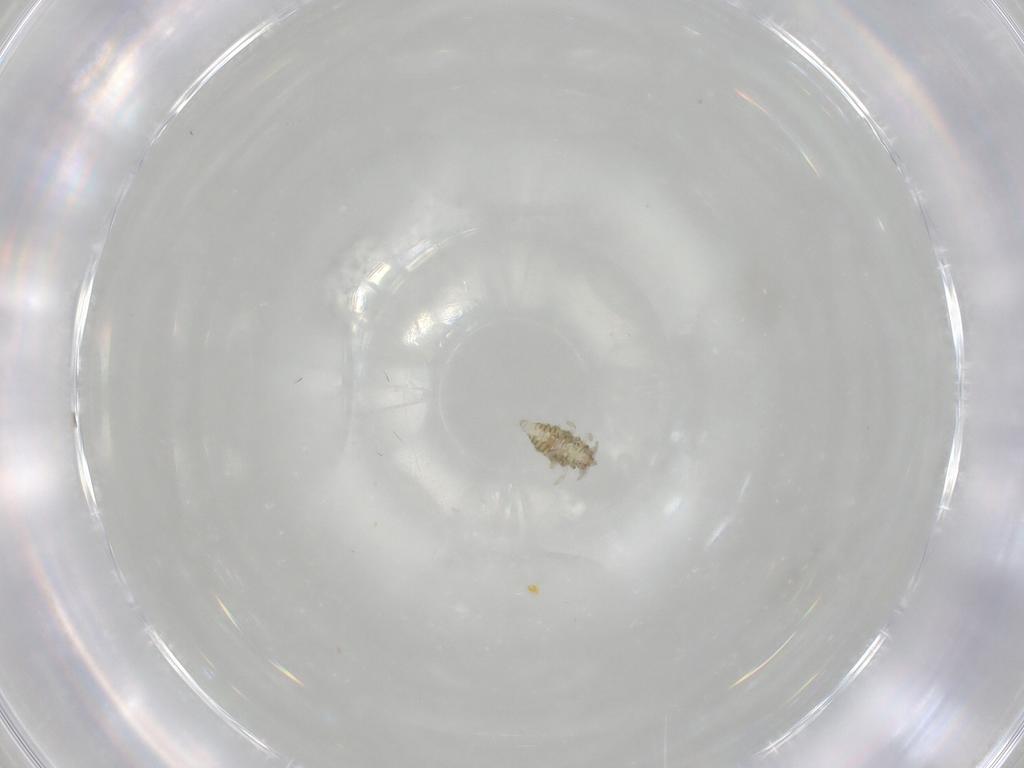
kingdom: Animalia
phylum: Arthropoda
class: Insecta
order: Neuroptera
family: Coniopterygidae
